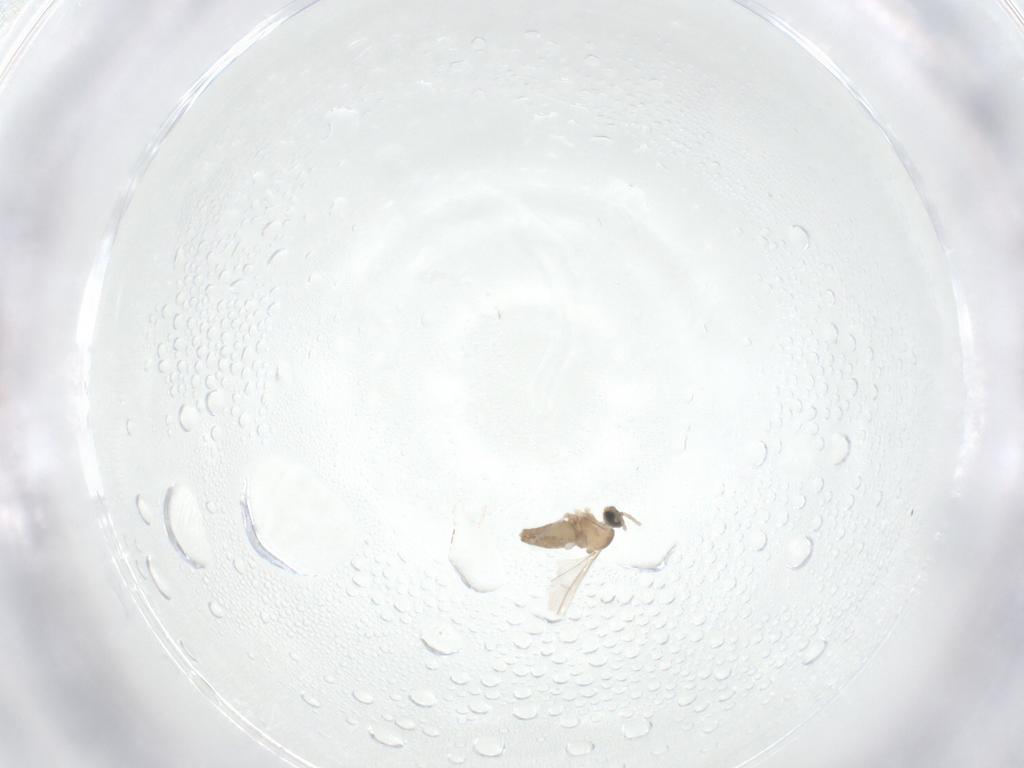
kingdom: Animalia
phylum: Arthropoda
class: Insecta
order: Diptera
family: Cecidomyiidae
